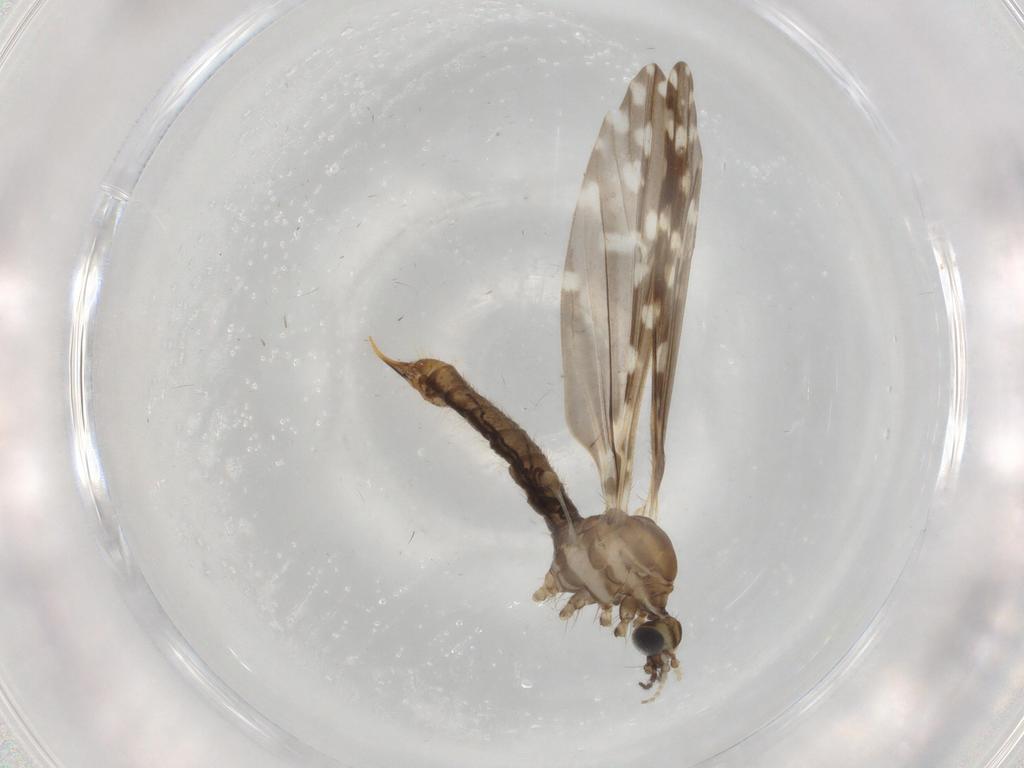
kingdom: Animalia
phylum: Arthropoda
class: Insecta
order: Diptera
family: Limoniidae
